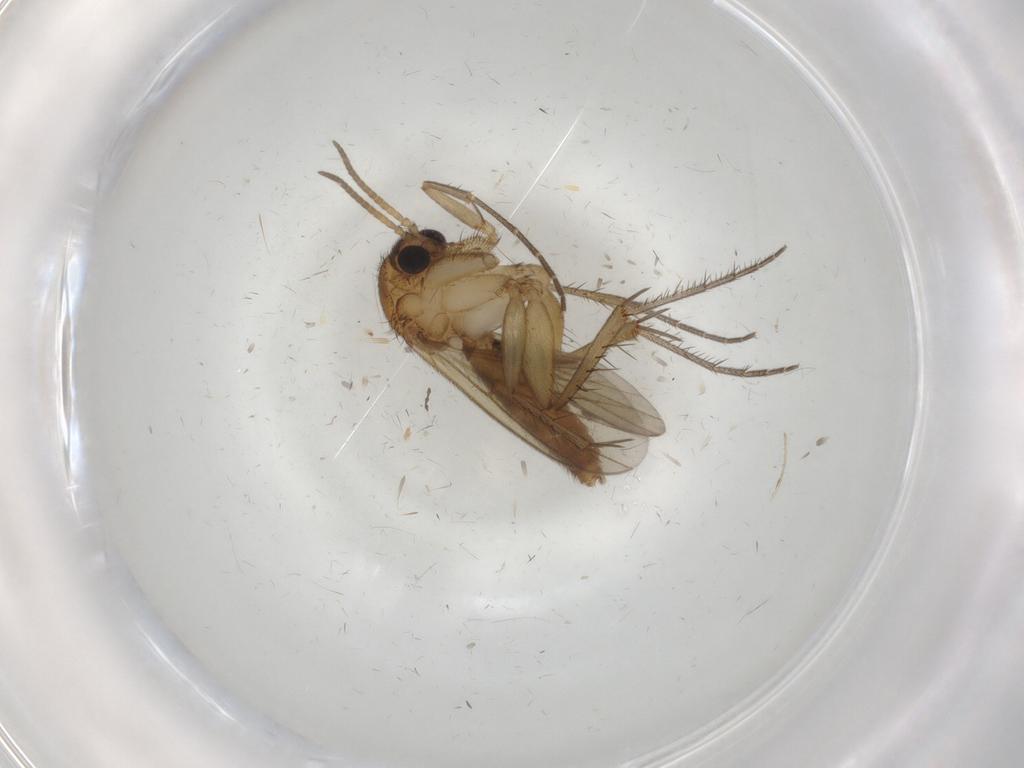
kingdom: Animalia
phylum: Arthropoda
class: Insecta
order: Diptera
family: Mycetophilidae
